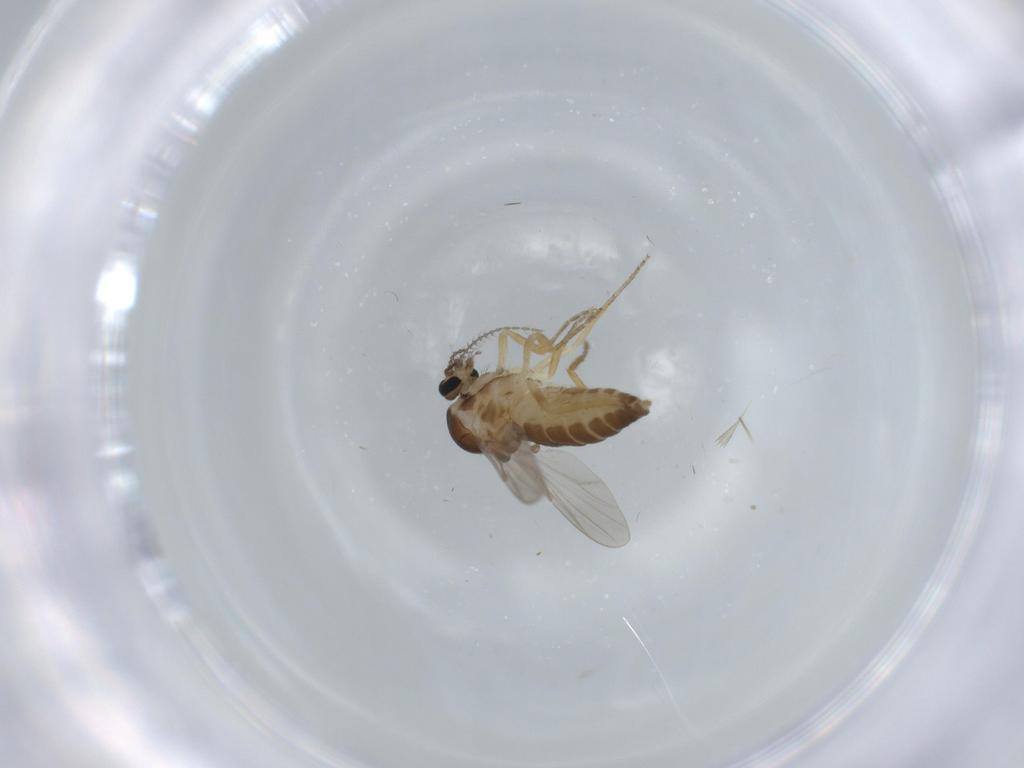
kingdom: Animalia
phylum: Arthropoda
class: Insecta
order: Diptera
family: Ceratopogonidae
